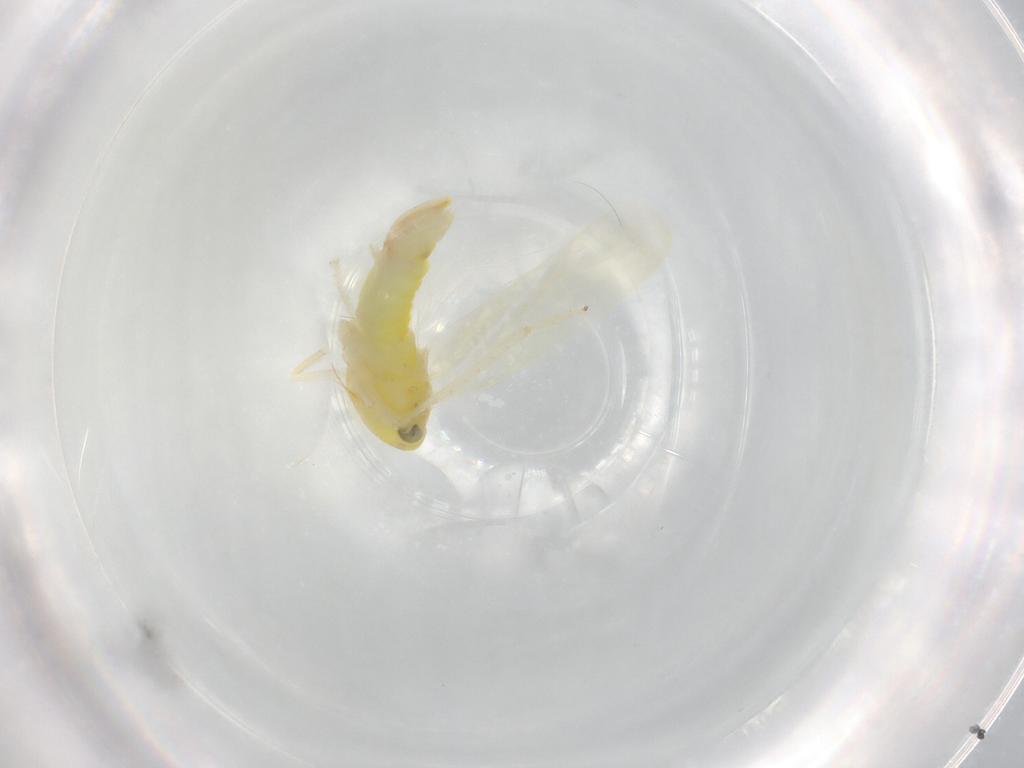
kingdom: Animalia
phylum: Arthropoda
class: Insecta
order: Hemiptera
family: Cicadellidae
